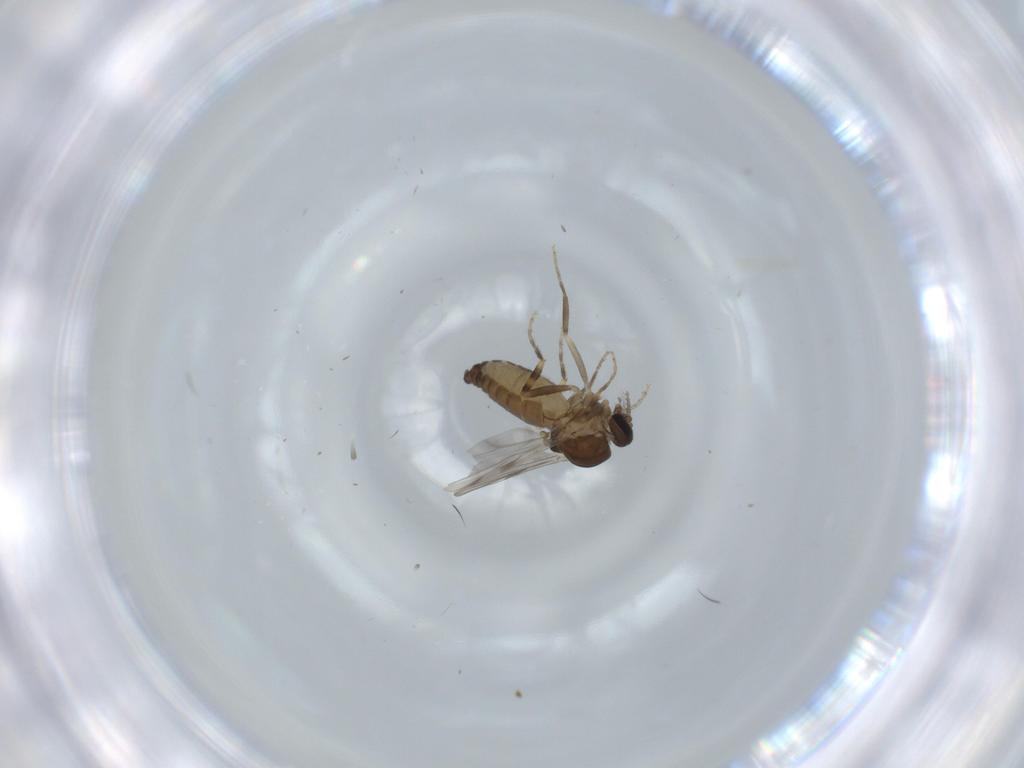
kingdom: Animalia
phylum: Arthropoda
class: Insecta
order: Diptera
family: Ceratopogonidae
